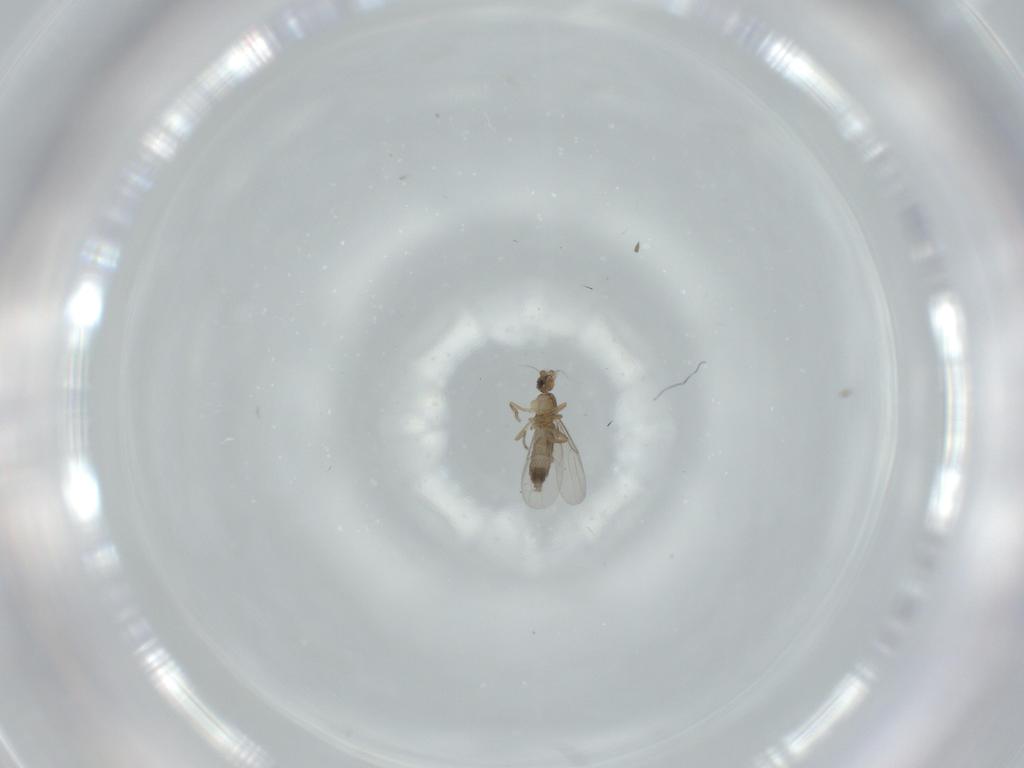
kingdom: Animalia
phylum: Arthropoda
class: Insecta
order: Diptera
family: Phoridae
